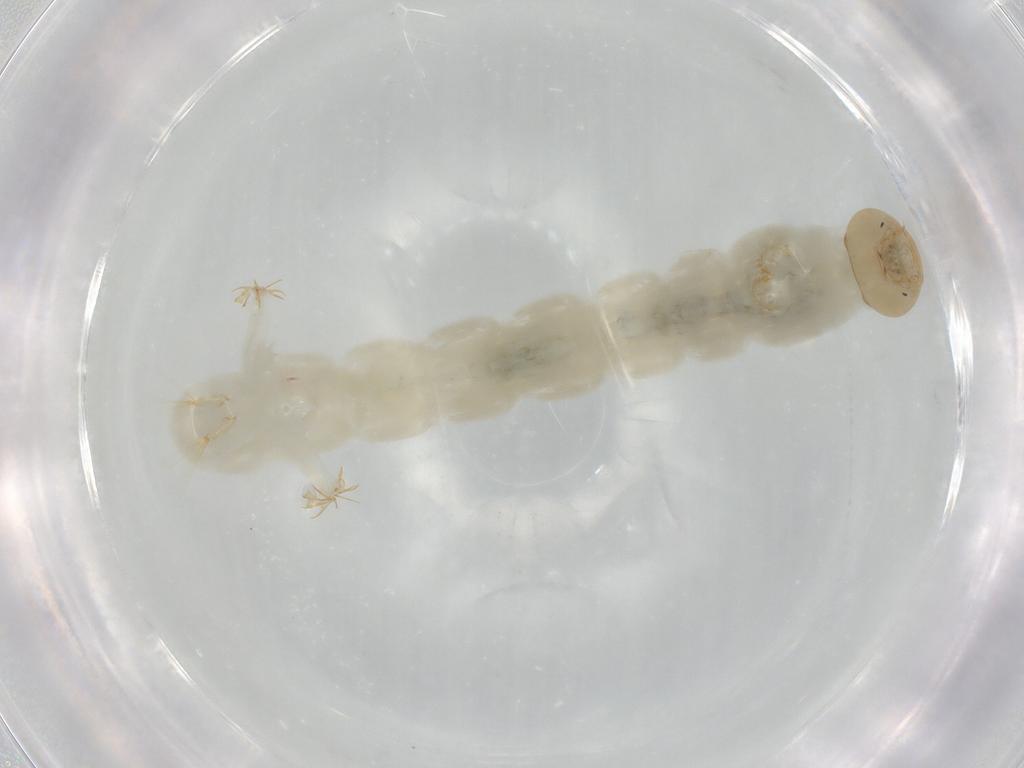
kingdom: Animalia
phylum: Arthropoda
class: Insecta
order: Diptera
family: Chironomidae
